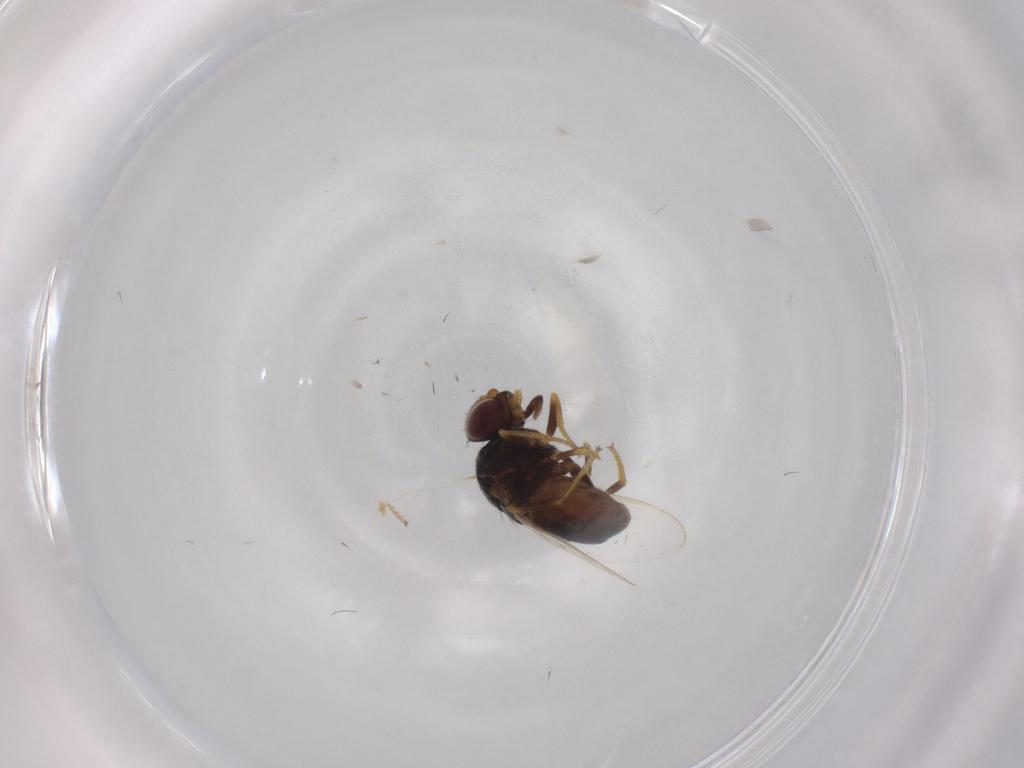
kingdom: Animalia
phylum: Arthropoda
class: Insecta
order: Diptera
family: Chloropidae
